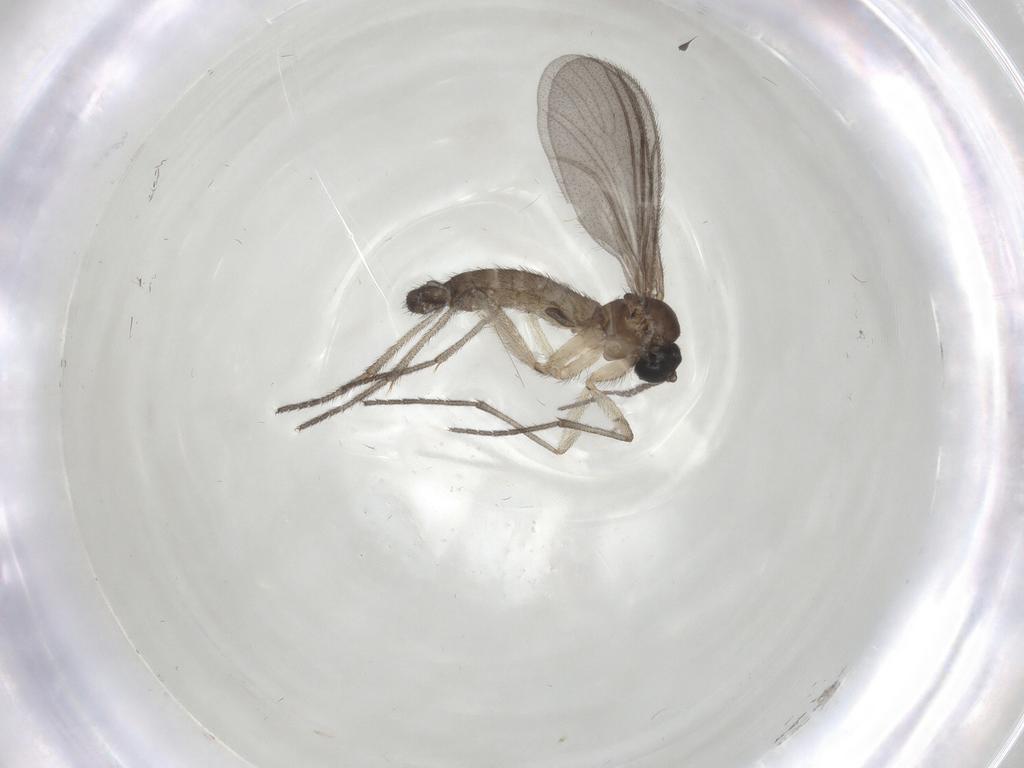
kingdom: Animalia
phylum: Arthropoda
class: Insecta
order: Diptera
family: Sciaridae
